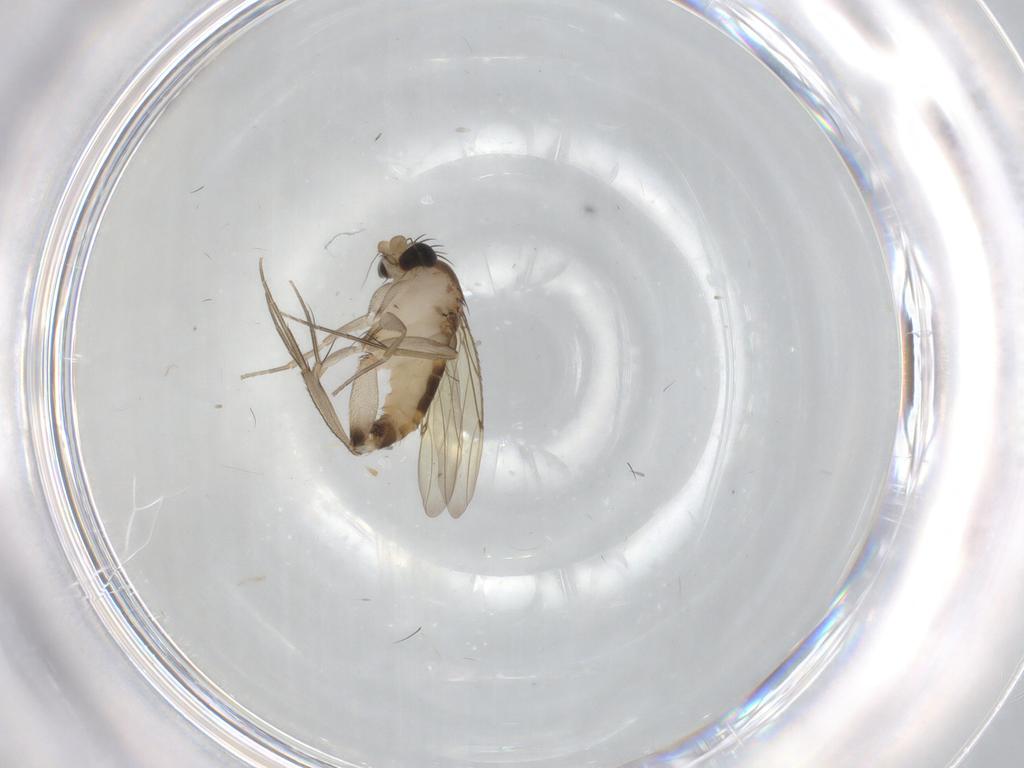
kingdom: Animalia
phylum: Arthropoda
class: Insecta
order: Diptera
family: Phoridae
